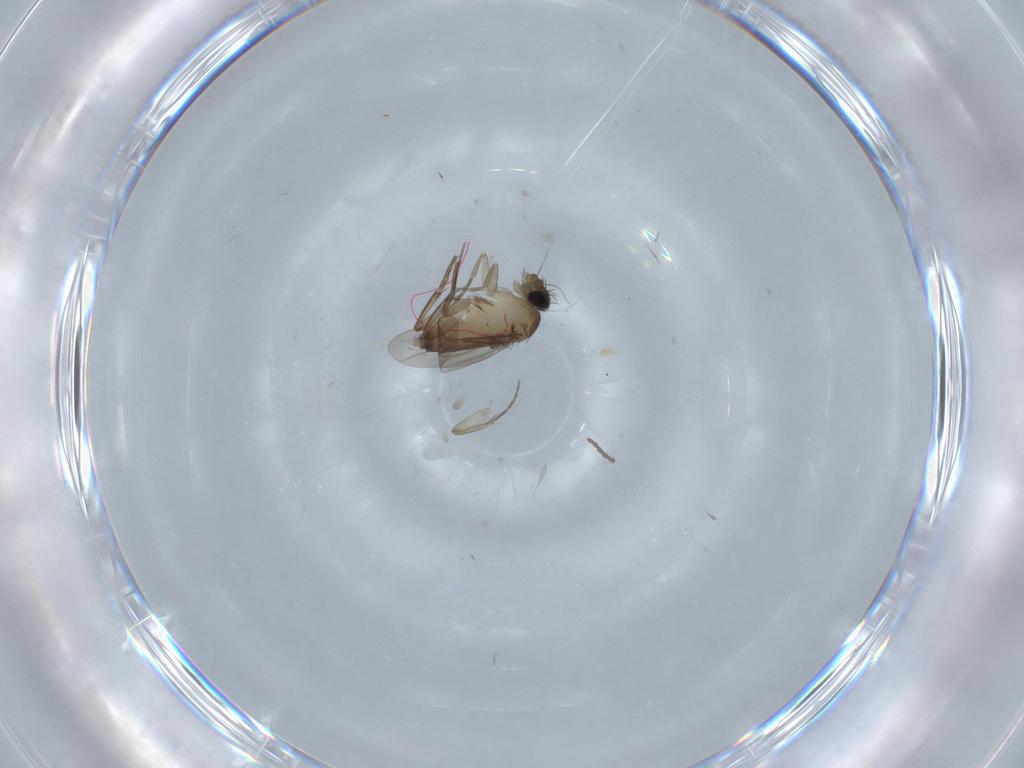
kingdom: Animalia
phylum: Arthropoda
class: Insecta
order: Diptera
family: Phoridae
